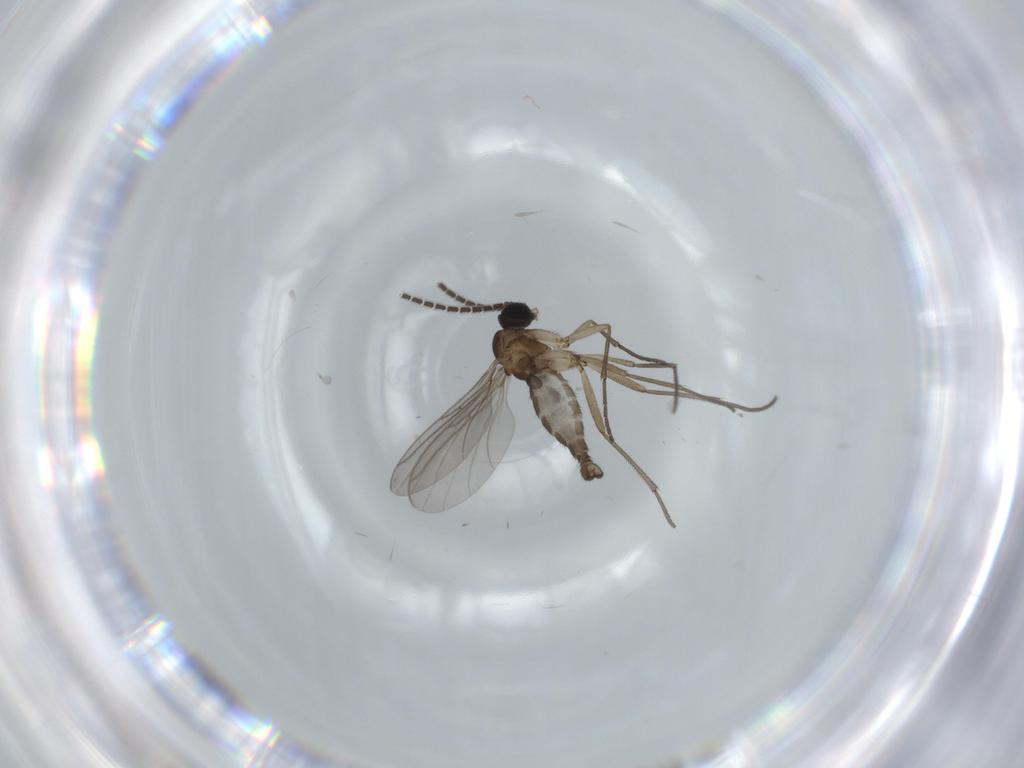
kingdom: Animalia
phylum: Arthropoda
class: Insecta
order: Diptera
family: Sciaridae
